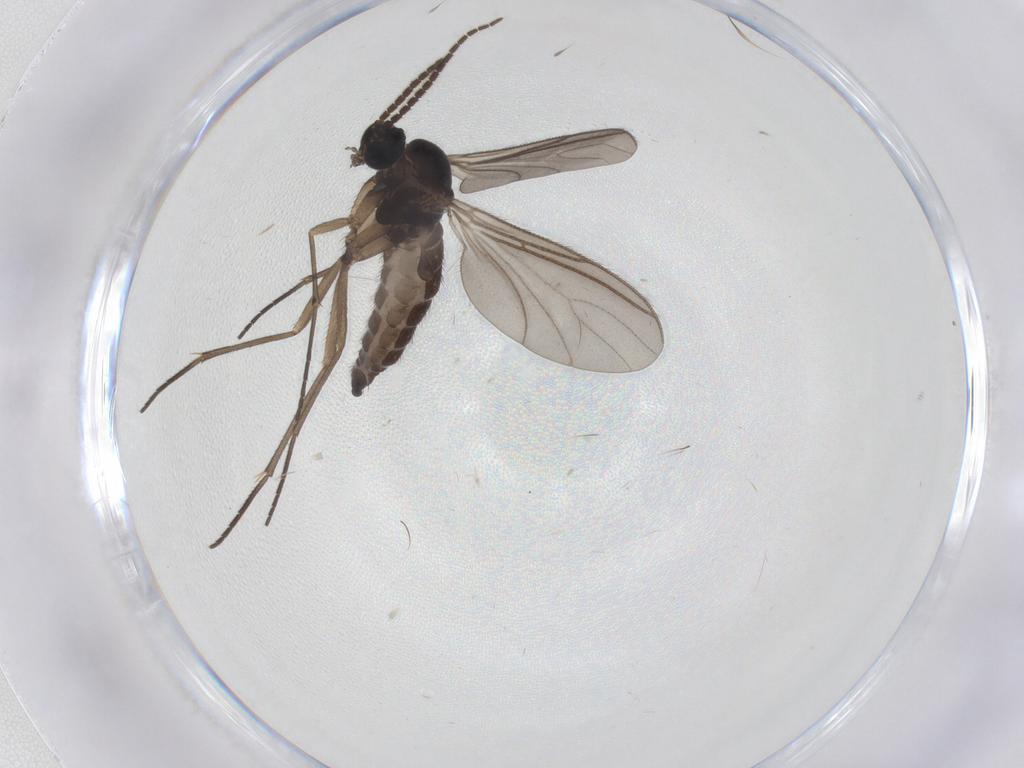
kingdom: Animalia
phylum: Arthropoda
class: Insecta
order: Diptera
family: Sciaridae
